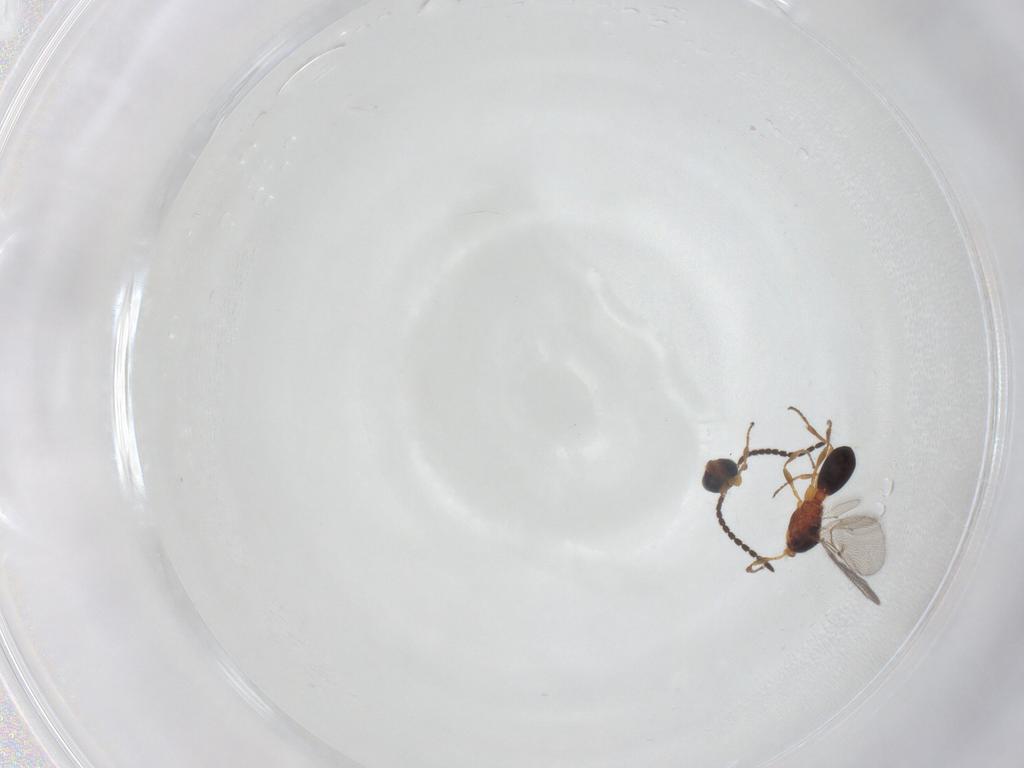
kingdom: Animalia
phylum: Arthropoda
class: Insecta
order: Hymenoptera
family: Diapriidae
